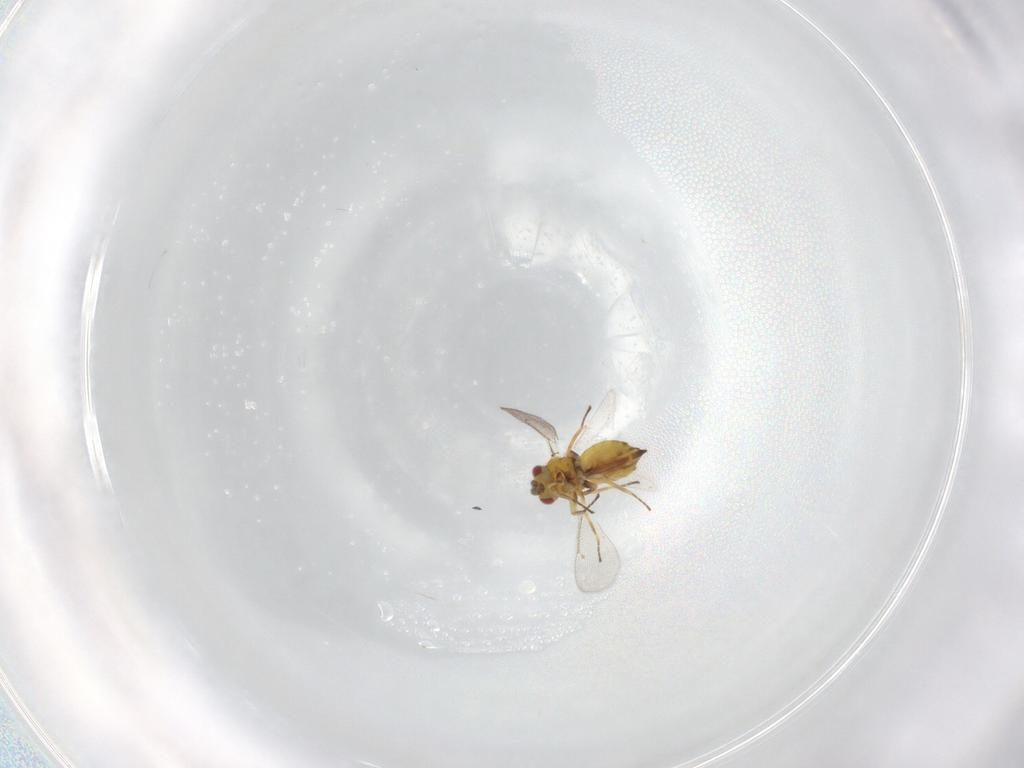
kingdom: Animalia
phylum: Arthropoda
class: Insecta
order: Hymenoptera
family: Eulophidae
